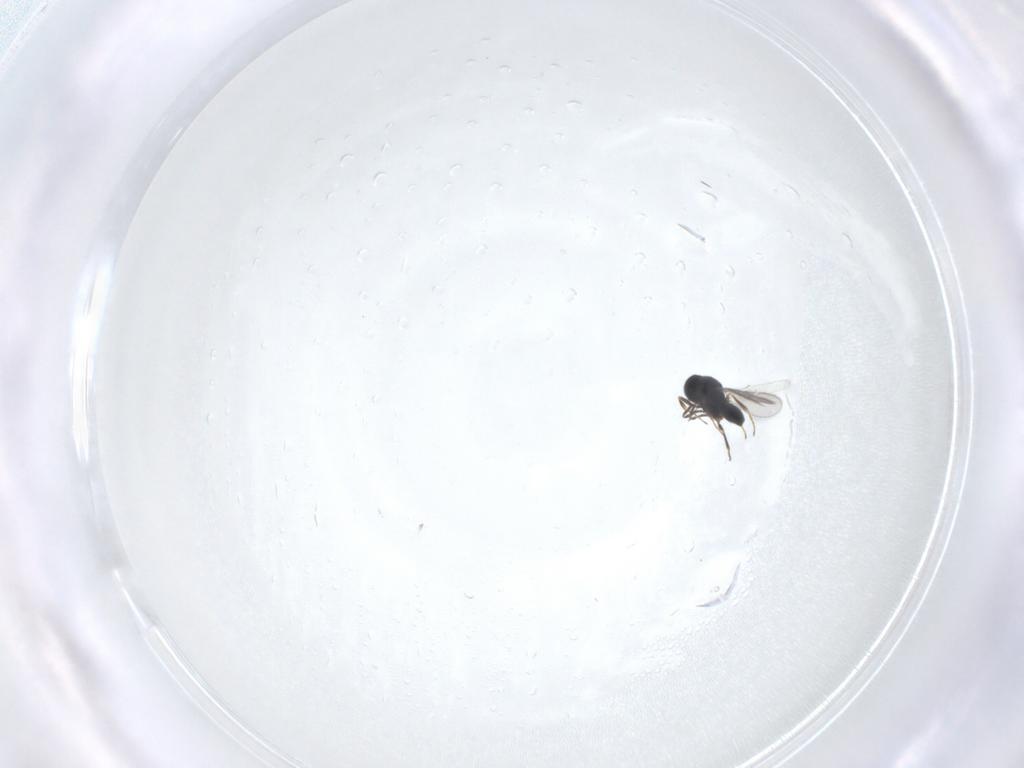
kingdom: Animalia
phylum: Arthropoda
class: Insecta
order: Hymenoptera
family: Scelionidae
